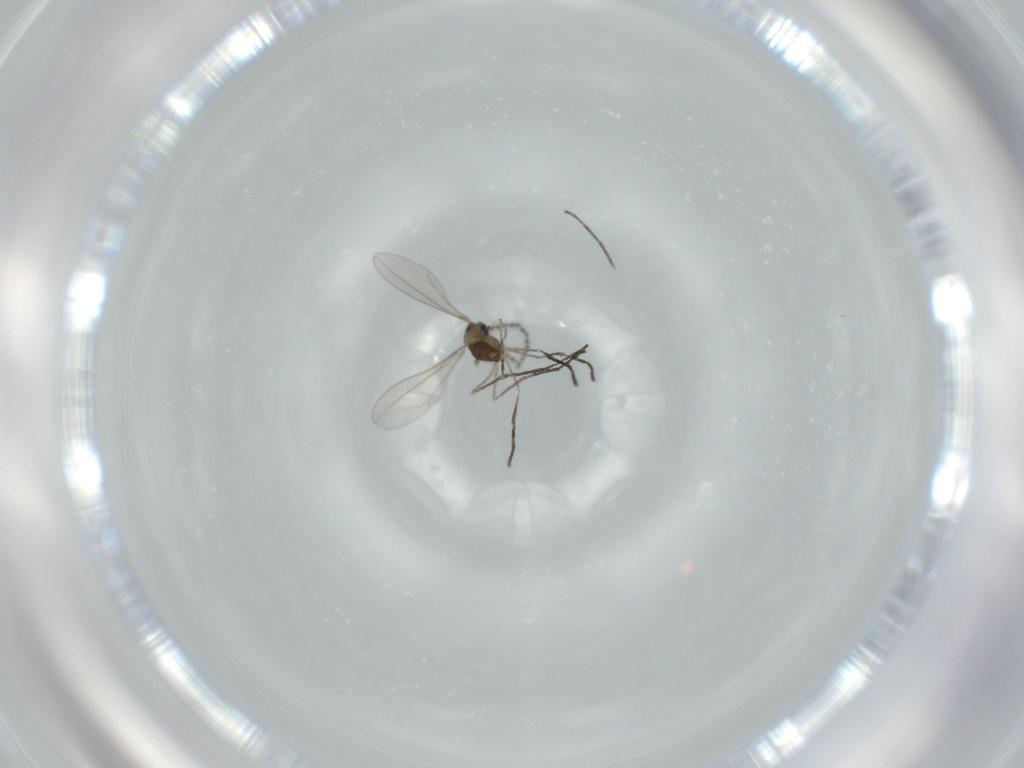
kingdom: Animalia
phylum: Arthropoda
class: Insecta
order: Diptera
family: Cecidomyiidae
